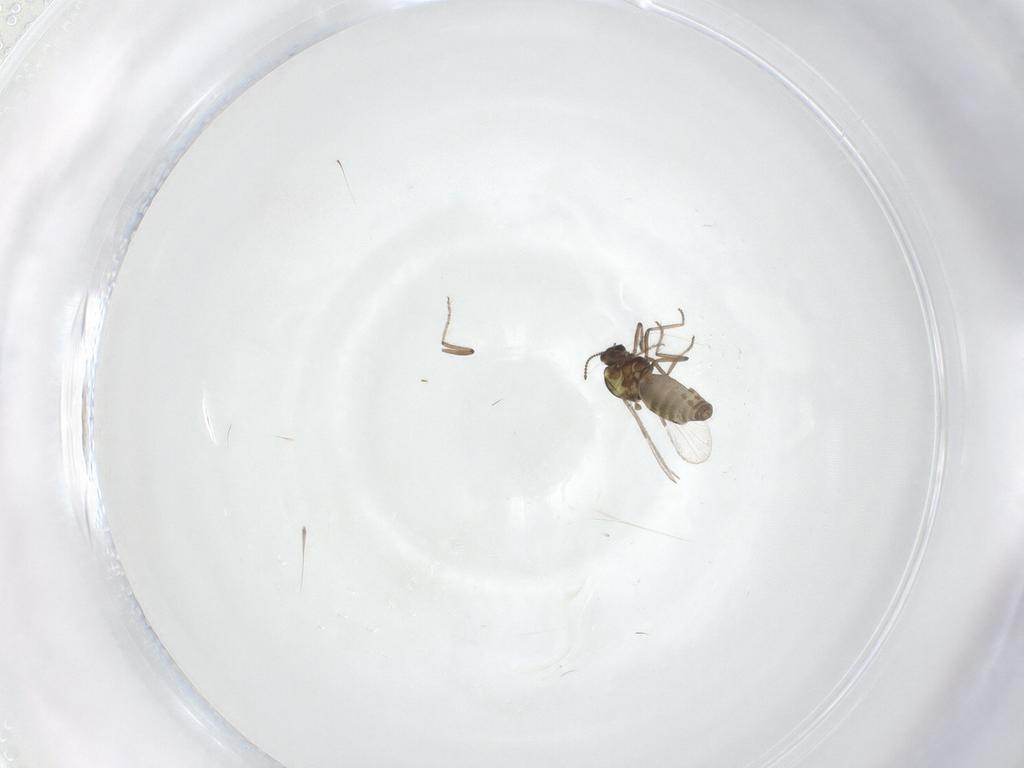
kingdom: Animalia
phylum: Arthropoda
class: Insecta
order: Diptera
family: Ceratopogonidae
